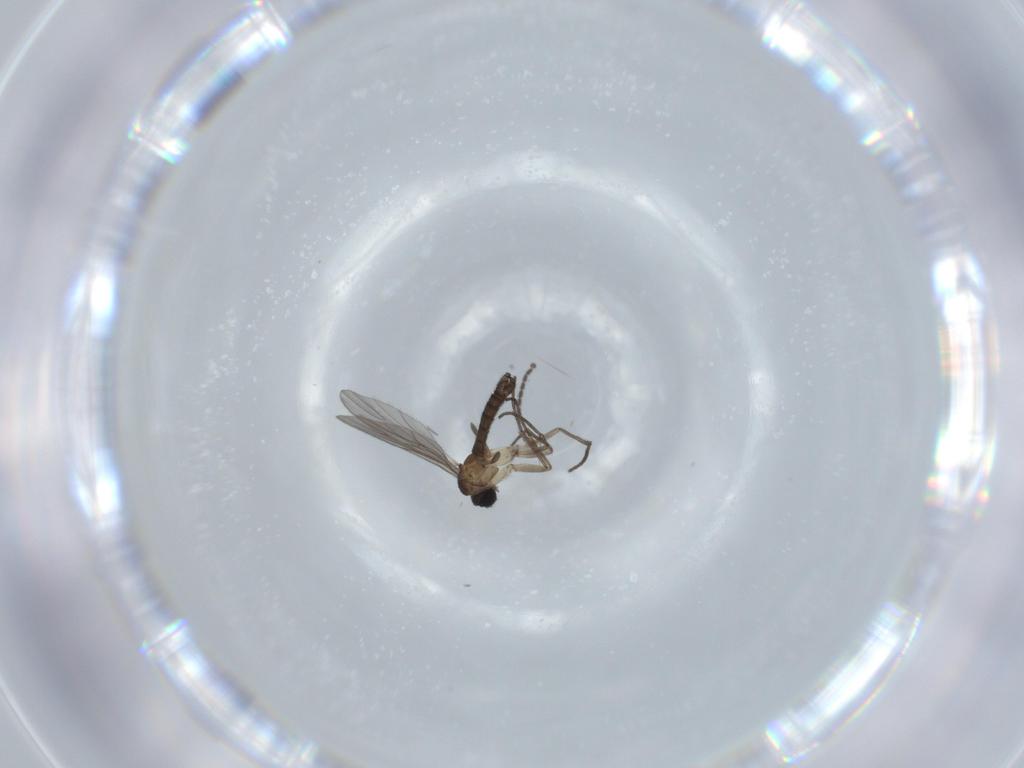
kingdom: Animalia
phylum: Arthropoda
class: Insecta
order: Diptera
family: Sciaridae
